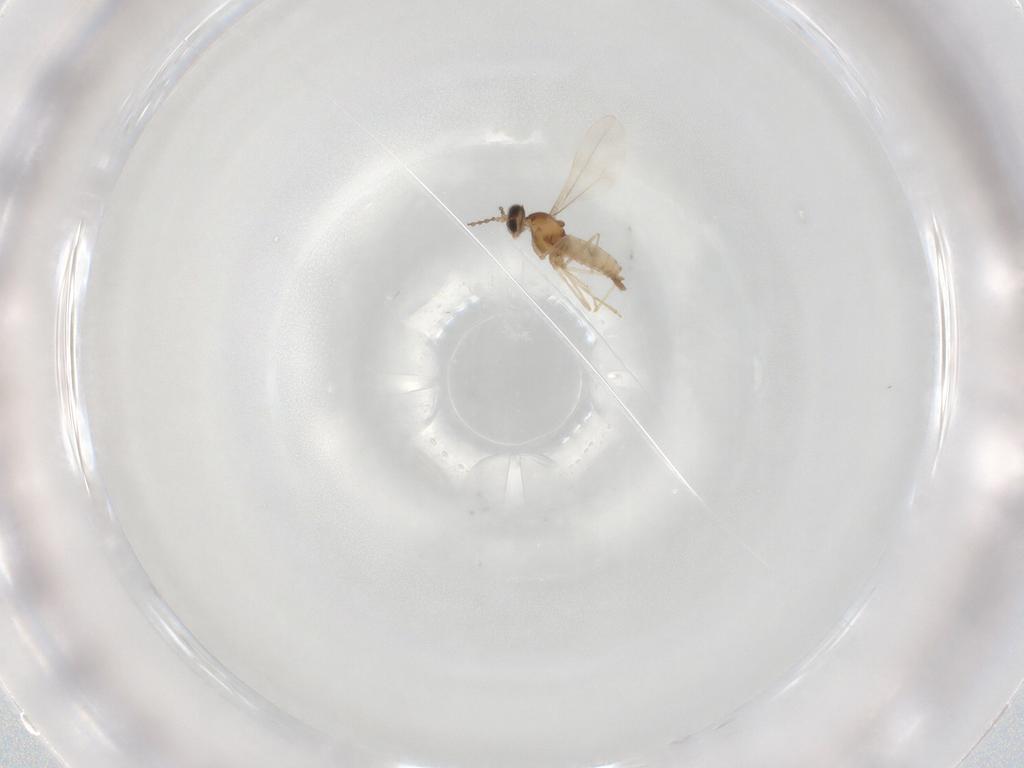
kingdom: Animalia
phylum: Arthropoda
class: Insecta
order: Diptera
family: Cecidomyiidae
